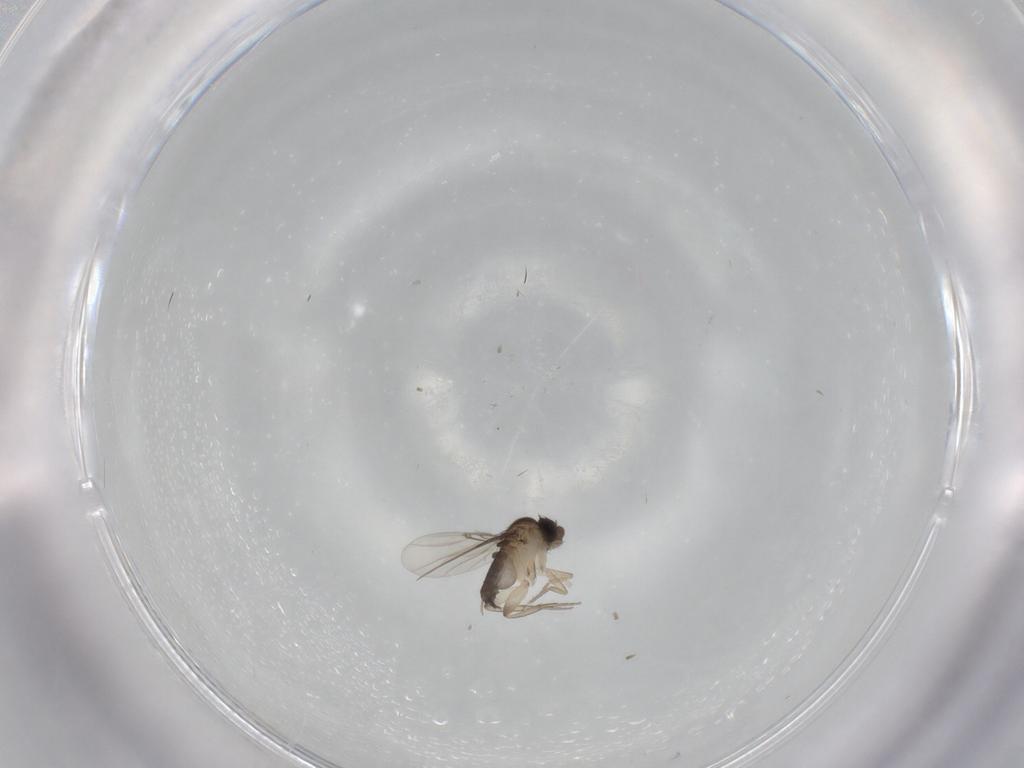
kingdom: Animalia
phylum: Arthropoda
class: Insecta
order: Diptera
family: Phoridae
